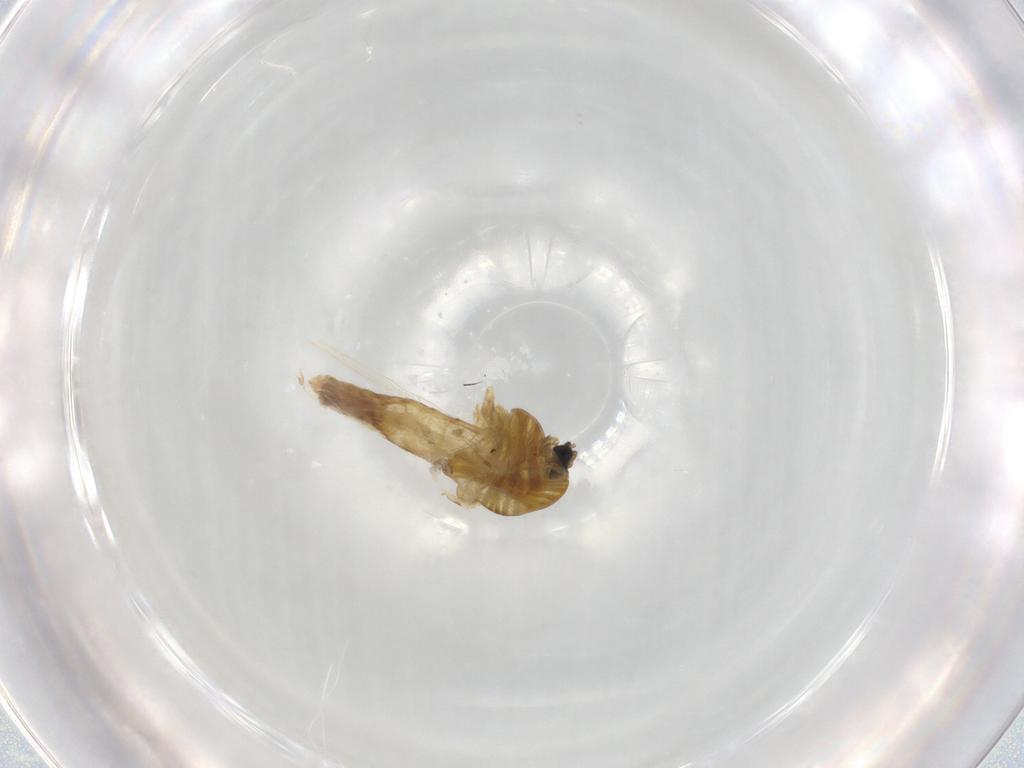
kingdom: Animalia
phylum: Arthropoda
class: Insecta
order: Diptera
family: Chironomidae
